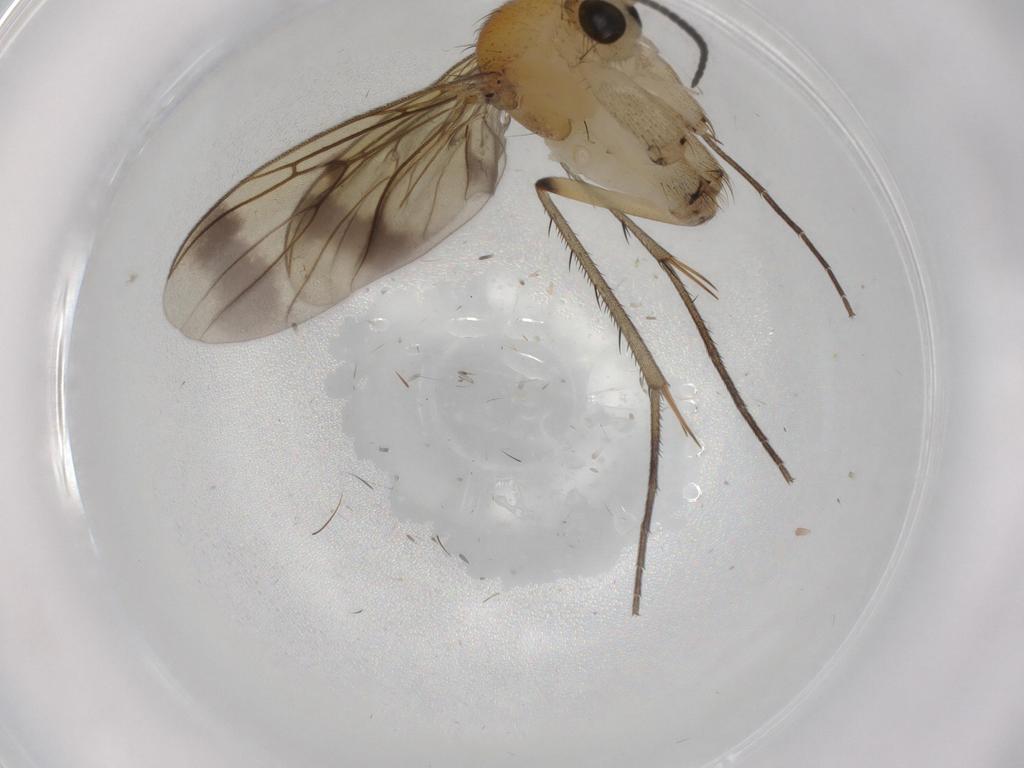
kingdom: Animalia
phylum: Arthropoda
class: Insecta
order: Diptera
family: Mycetophilidae
